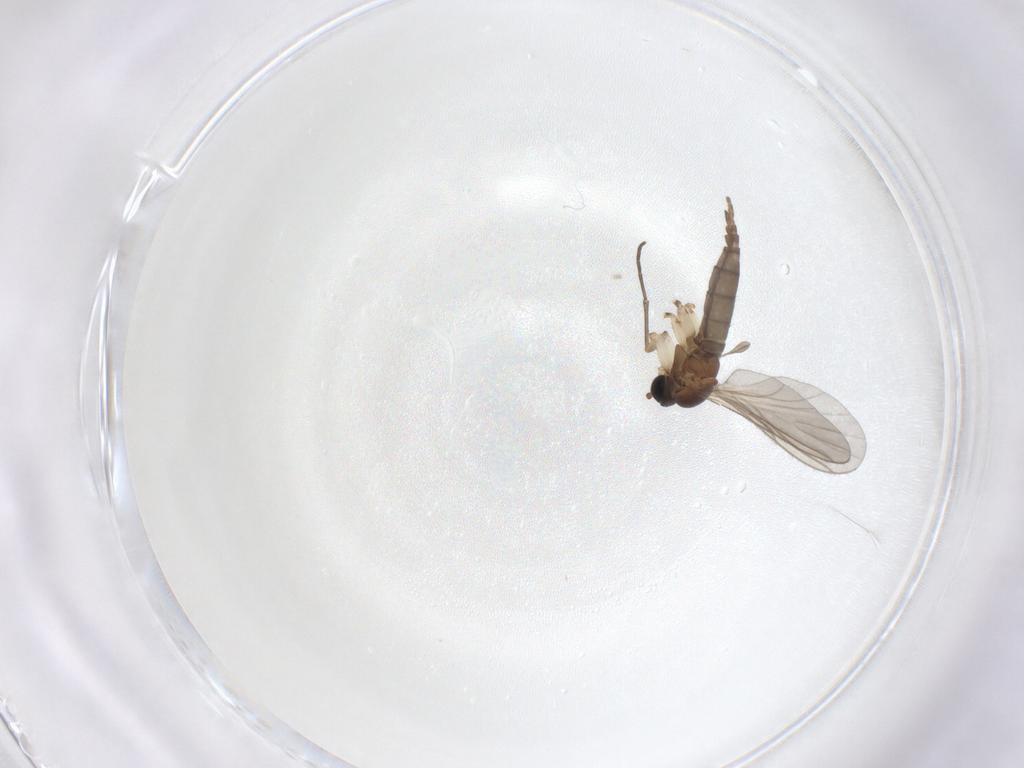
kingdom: Animalia
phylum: Arthropoda
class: Insecta
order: Diptera
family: Sciaridae
